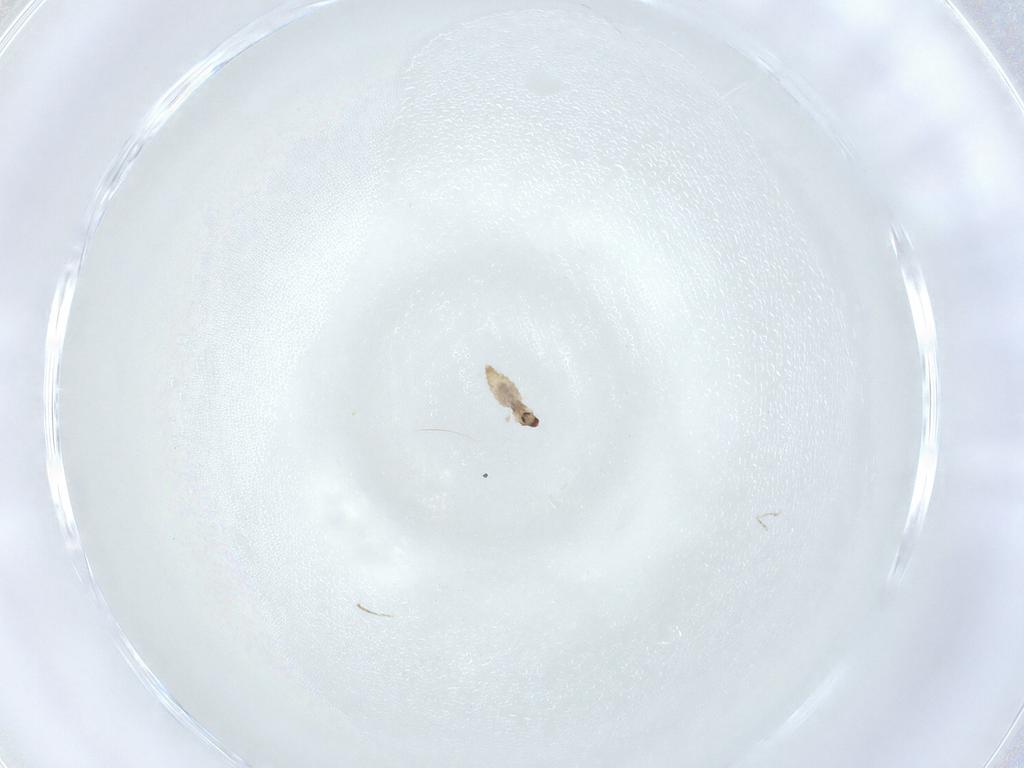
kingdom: Animalia
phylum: Arthropoda
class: Insecta
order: Diptera
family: Cecidomyiidae
